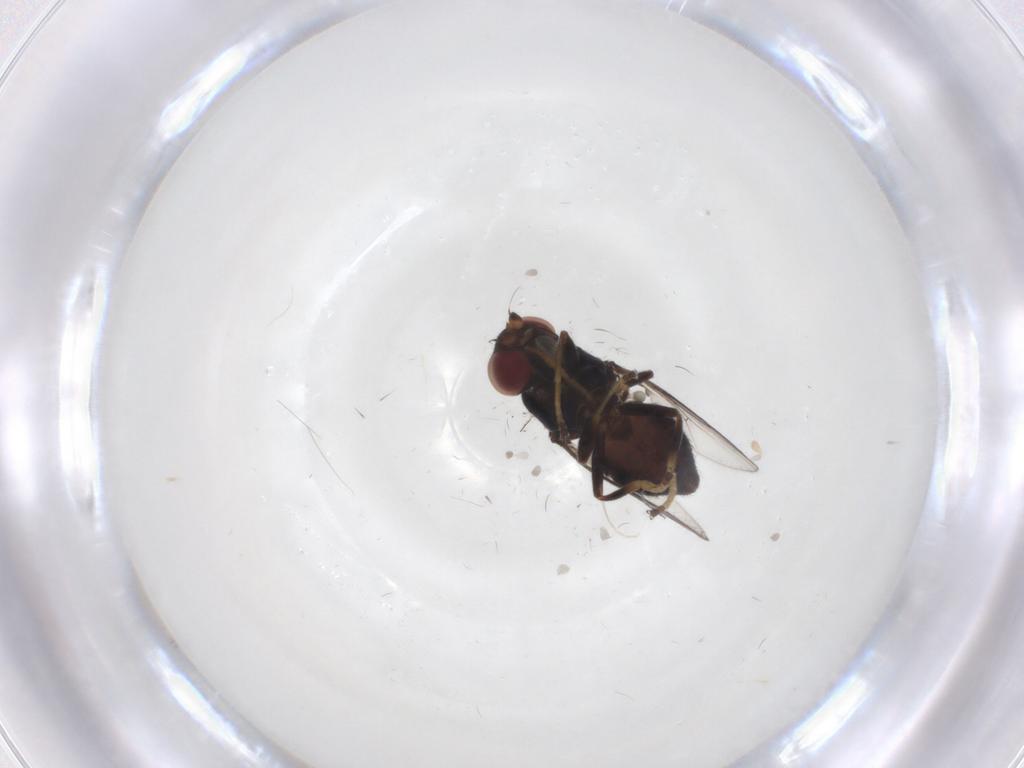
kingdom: Animalia
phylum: Arthropoda
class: Insecta
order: Diptera
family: Chloropidae
